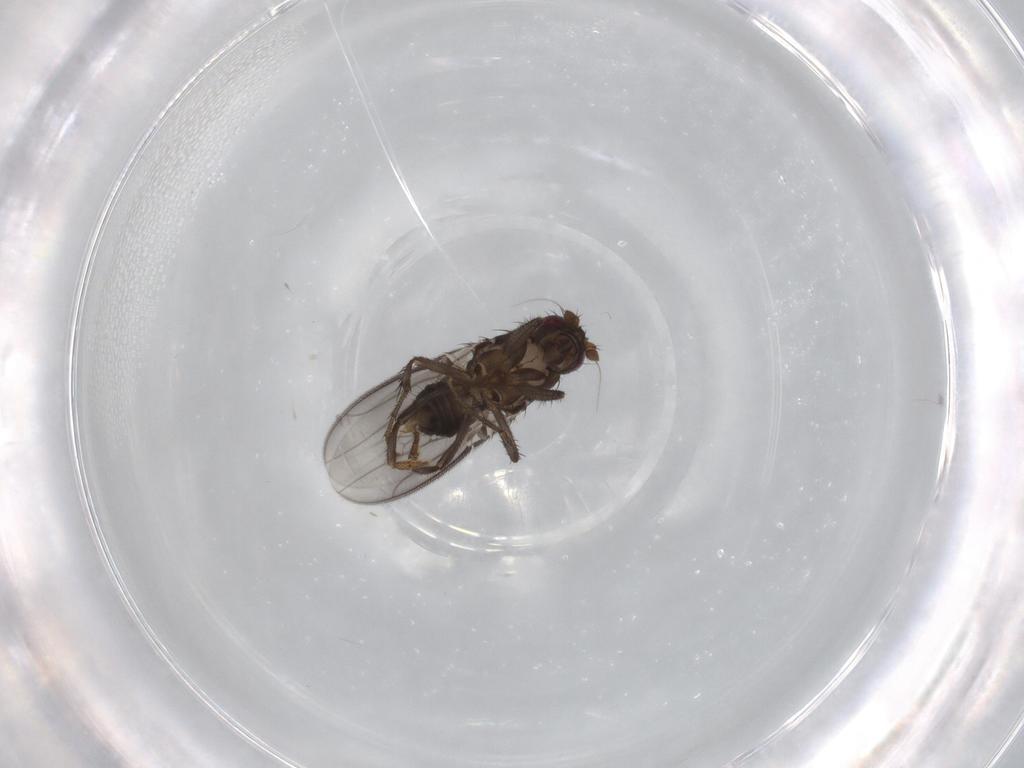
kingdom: Animalia
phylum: Arthropoda
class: Insecta
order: Diptera
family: Sphaeroceridae
